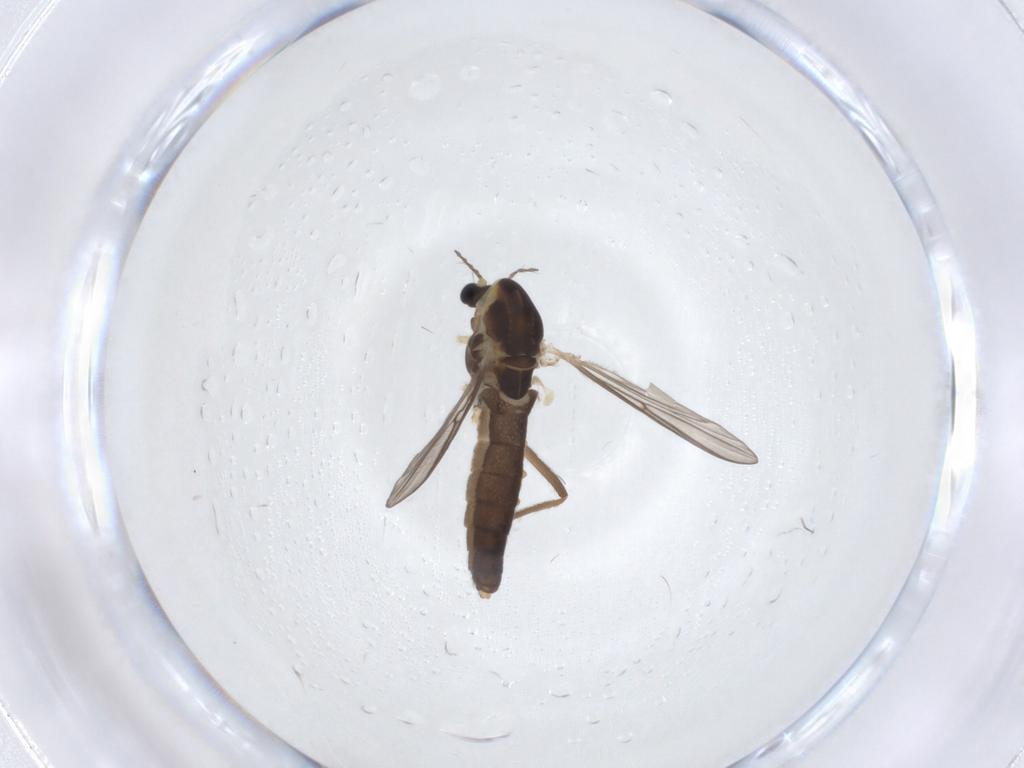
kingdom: Animalia
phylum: Arthropoda
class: Insecta
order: Diptera
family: Chironomidae
